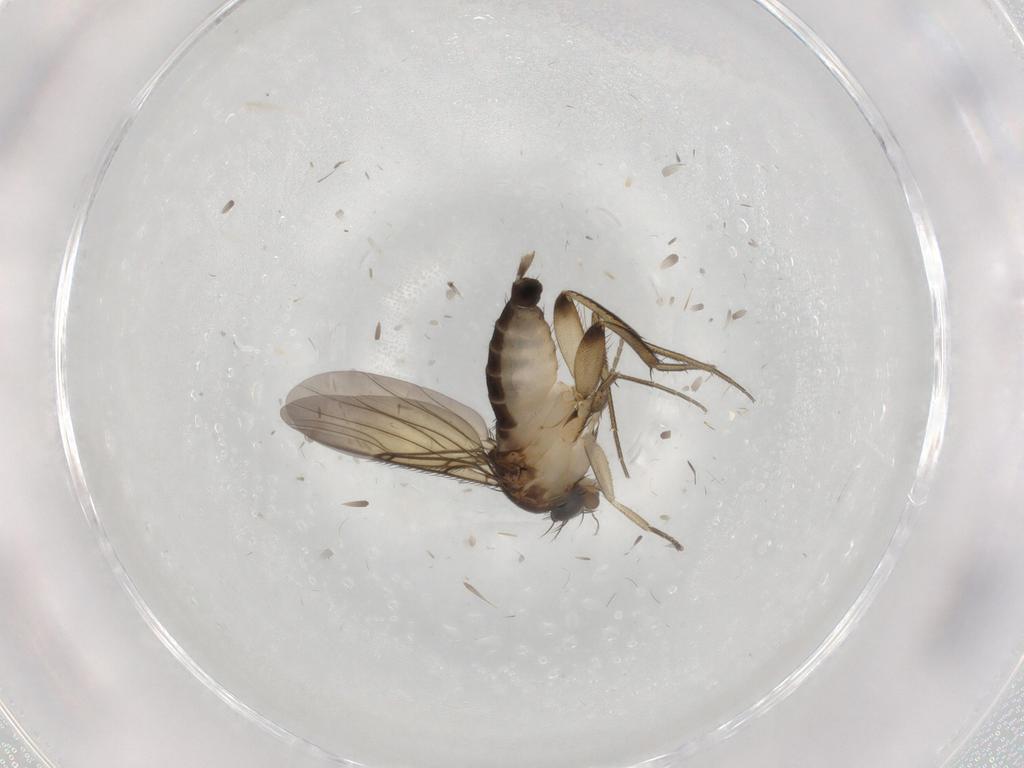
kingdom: Animalia
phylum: Arthropoda
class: Insecta
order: Diptera
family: Phoridae
